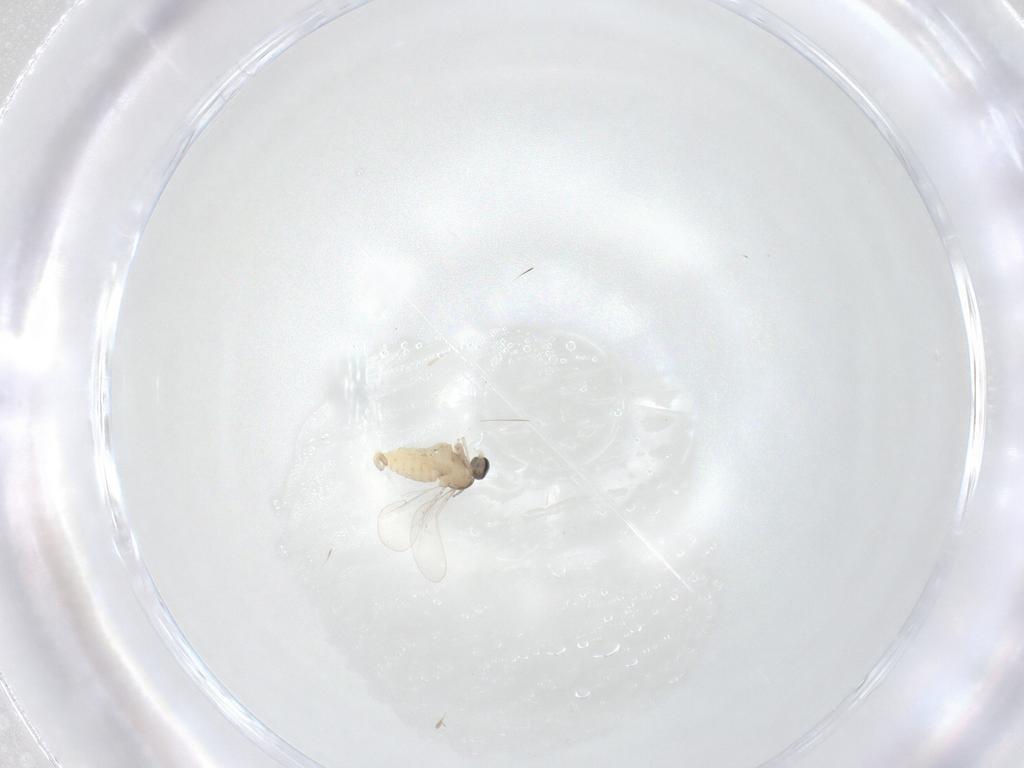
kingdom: Animalia
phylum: Arthropoda
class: Insecta
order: Diptera
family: Cecidomyiidae
